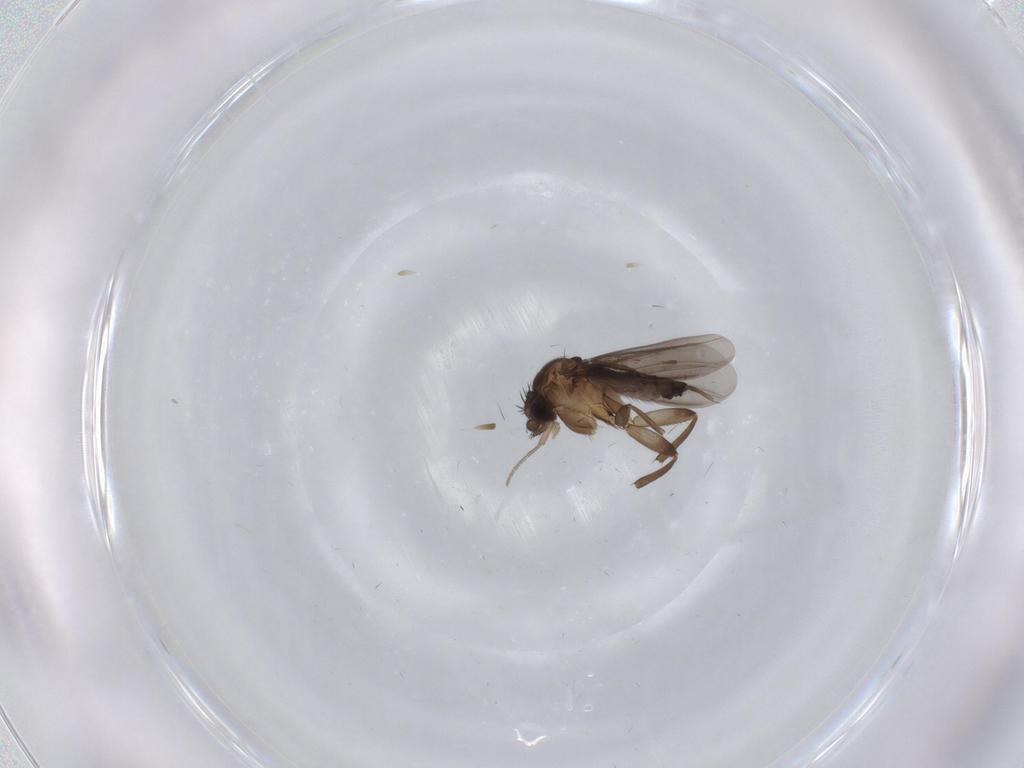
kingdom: Animalia
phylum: Arthropoda
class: Insecta
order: Diptera
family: Phoridae
